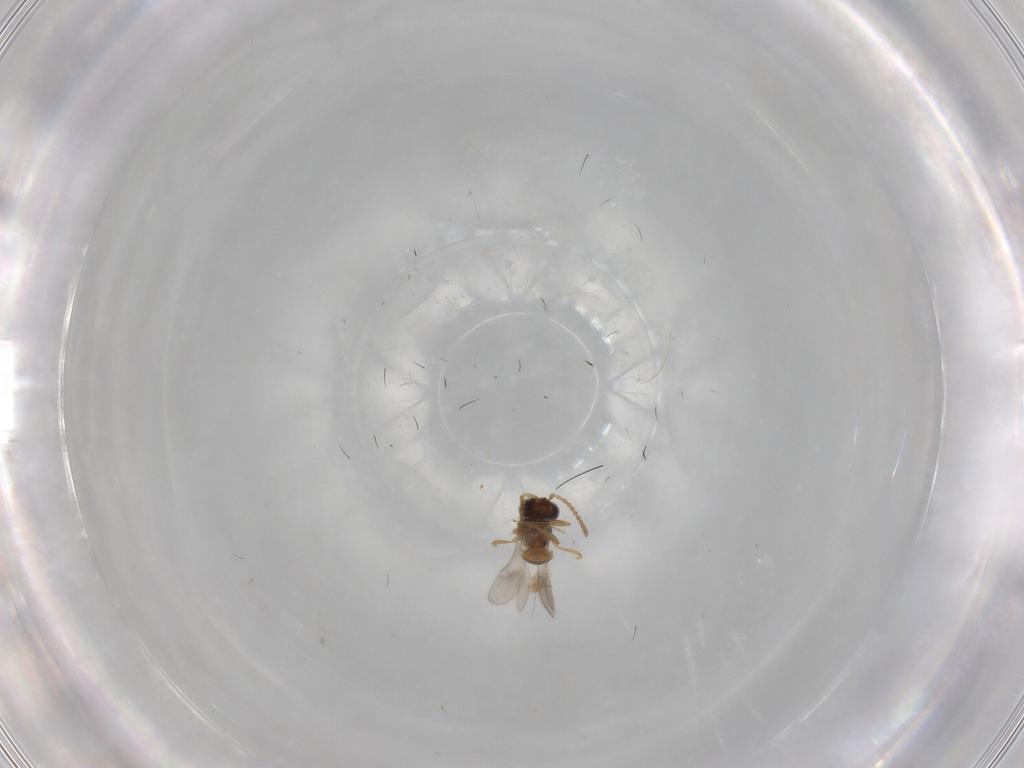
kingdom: Animalia
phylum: Arthropoda
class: Insecta
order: Hymenoptera
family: Scelionidae
